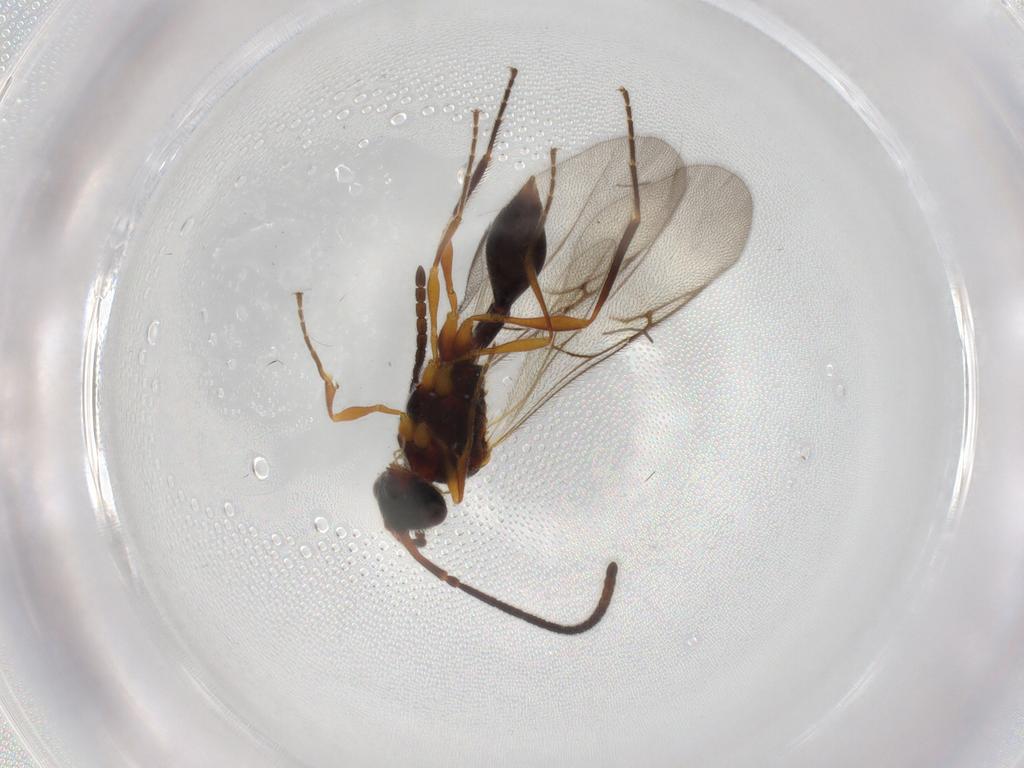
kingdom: Animalia
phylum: Arthropoda
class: Insecta
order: Hymenoptera
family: Diapriidae
